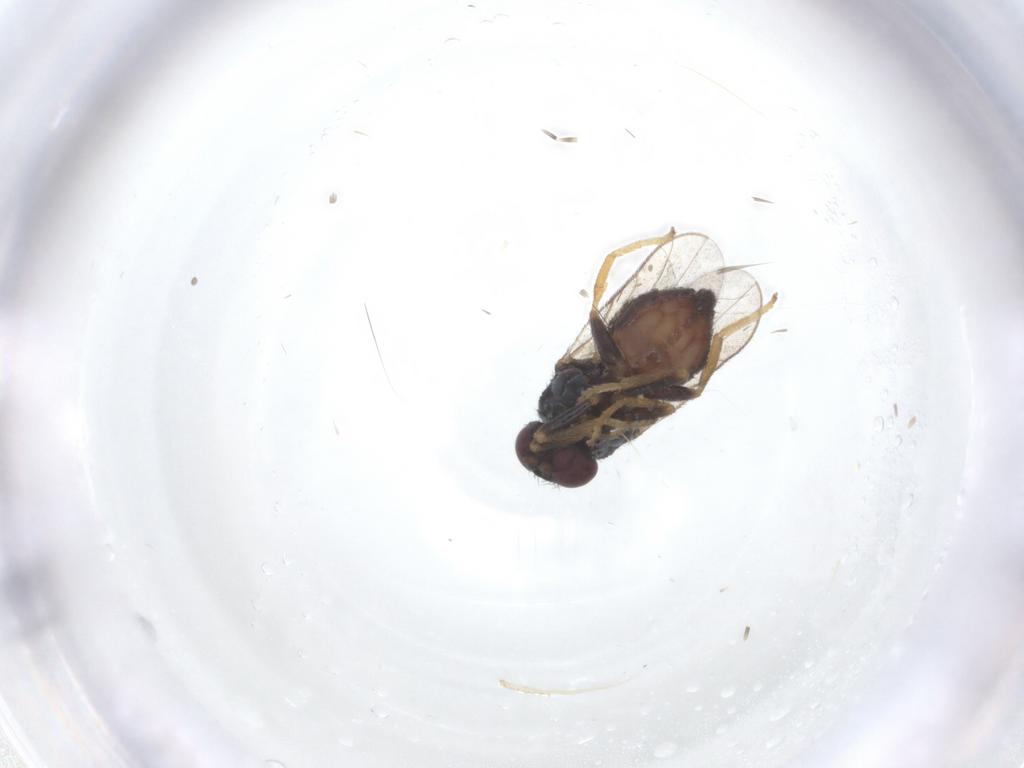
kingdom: Animalia
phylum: Arthropoda
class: Insecta
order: Diptera
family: Chloropidae
